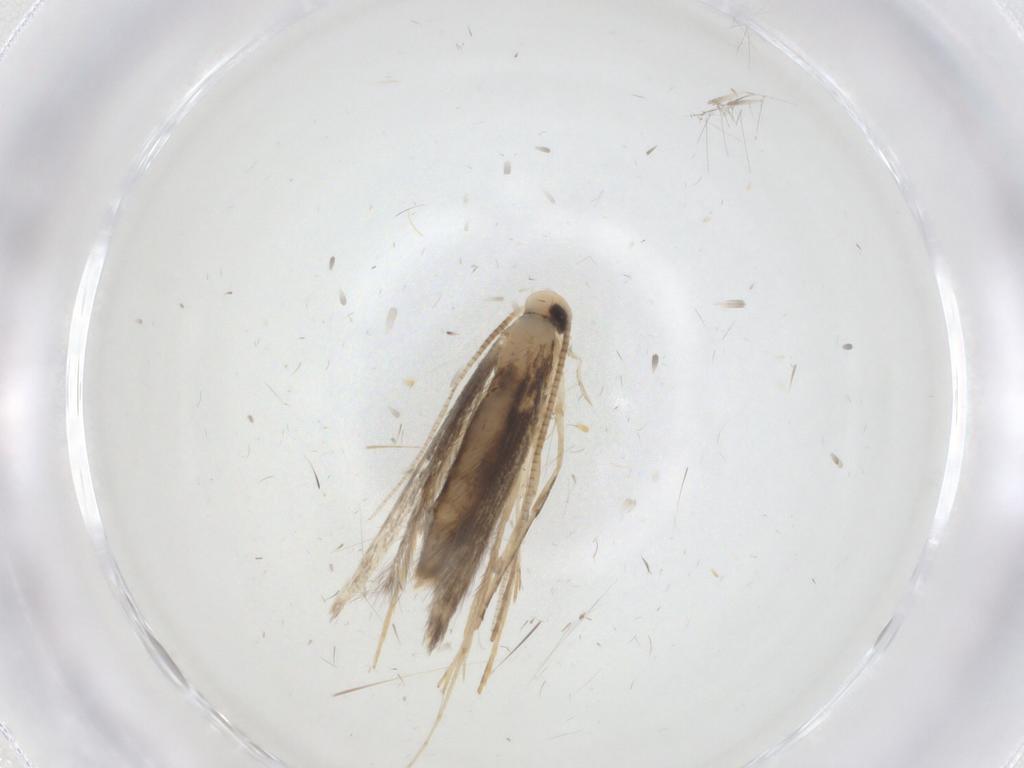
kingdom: Animalia
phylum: Arthropoda
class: Insecta
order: Lepidoptera
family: Gracillariidae
